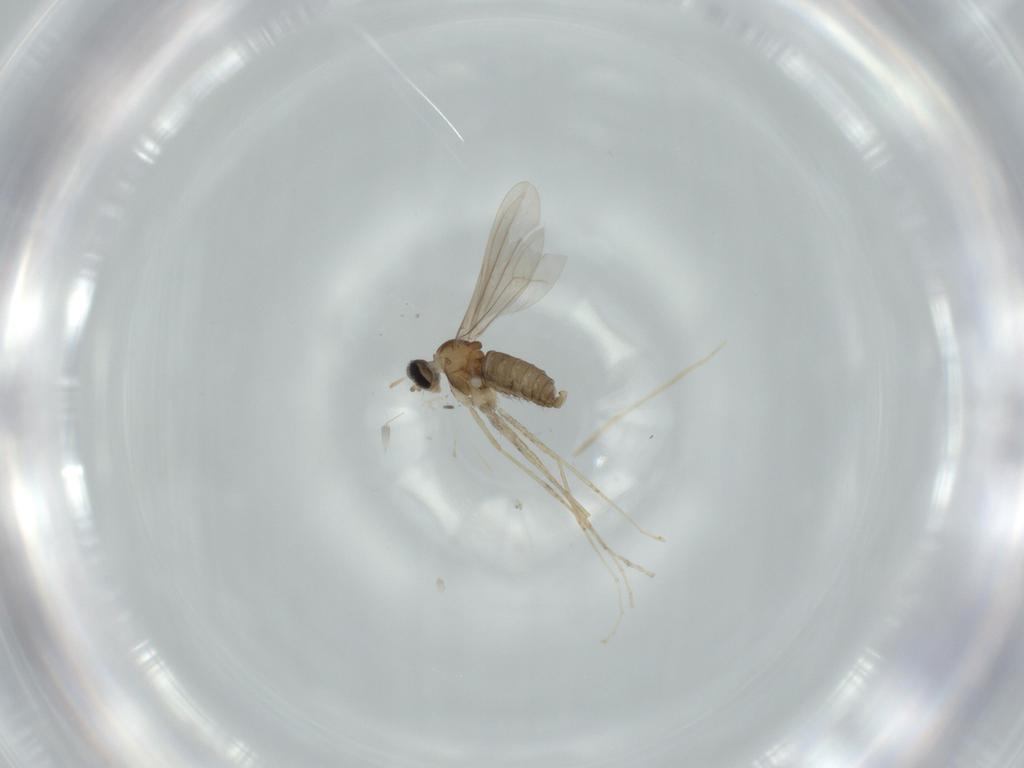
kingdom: Animalia
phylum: Arthropoda
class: Insecta
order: Diptera
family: Cecidomyiidae
